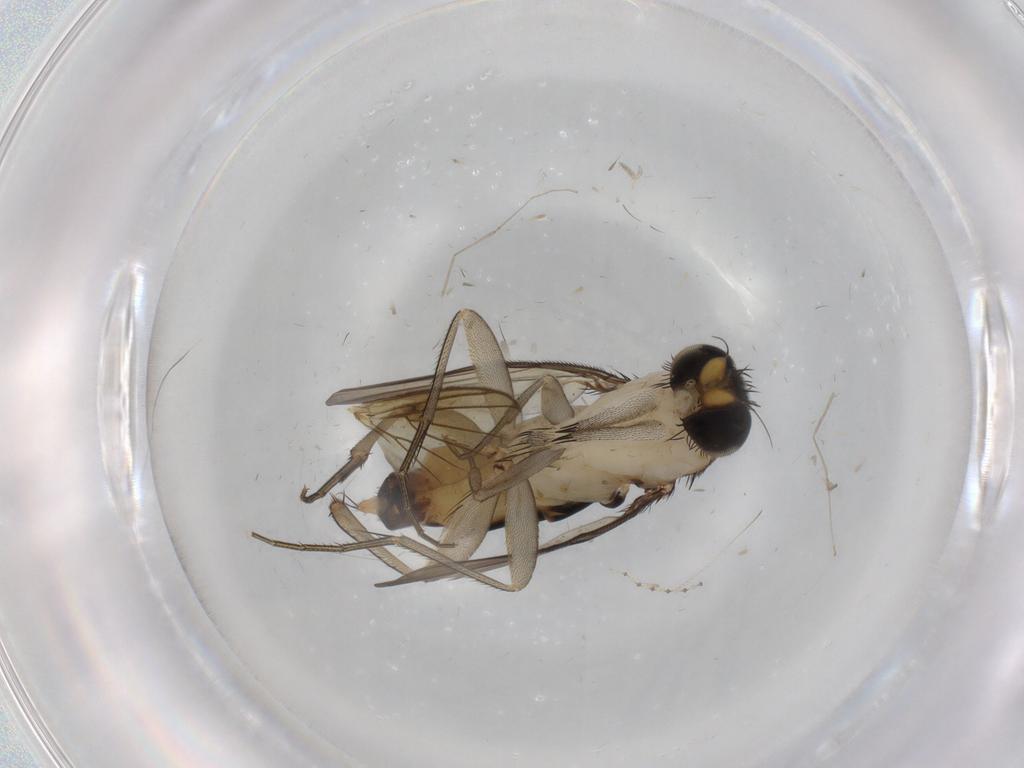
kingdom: Animalia
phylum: Arthropoda
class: Insecta
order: Diptera
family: Phoridae
